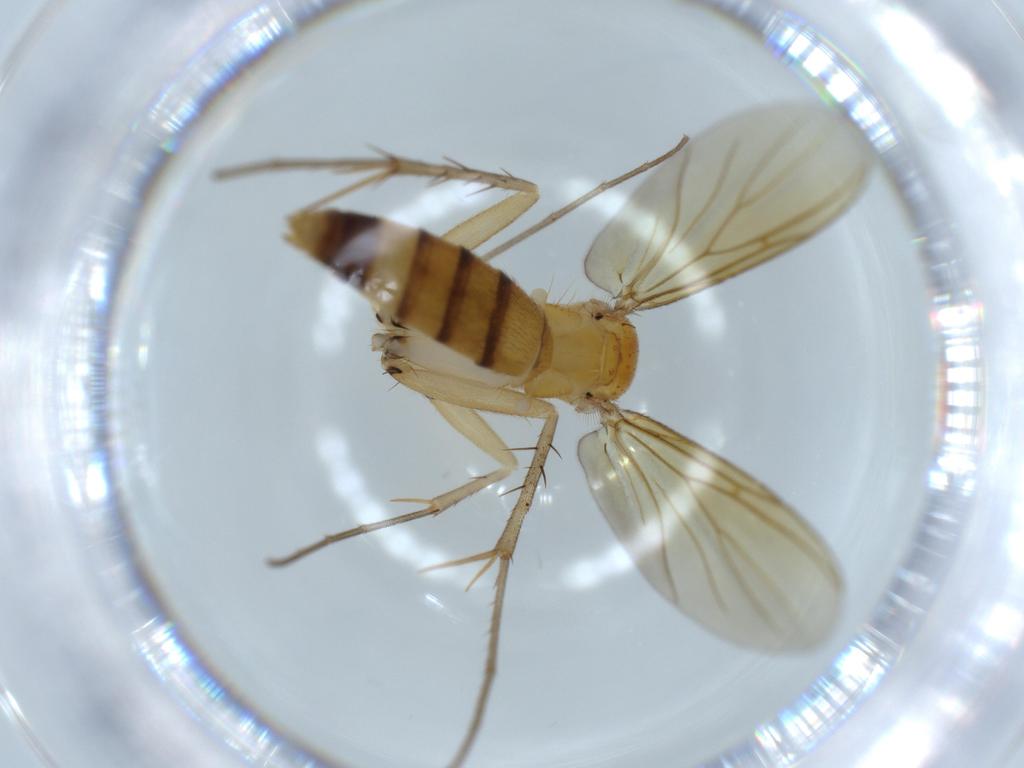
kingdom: Animalia
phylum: Arthropoda
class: Insecta
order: Diptera
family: Mycetophilidae
